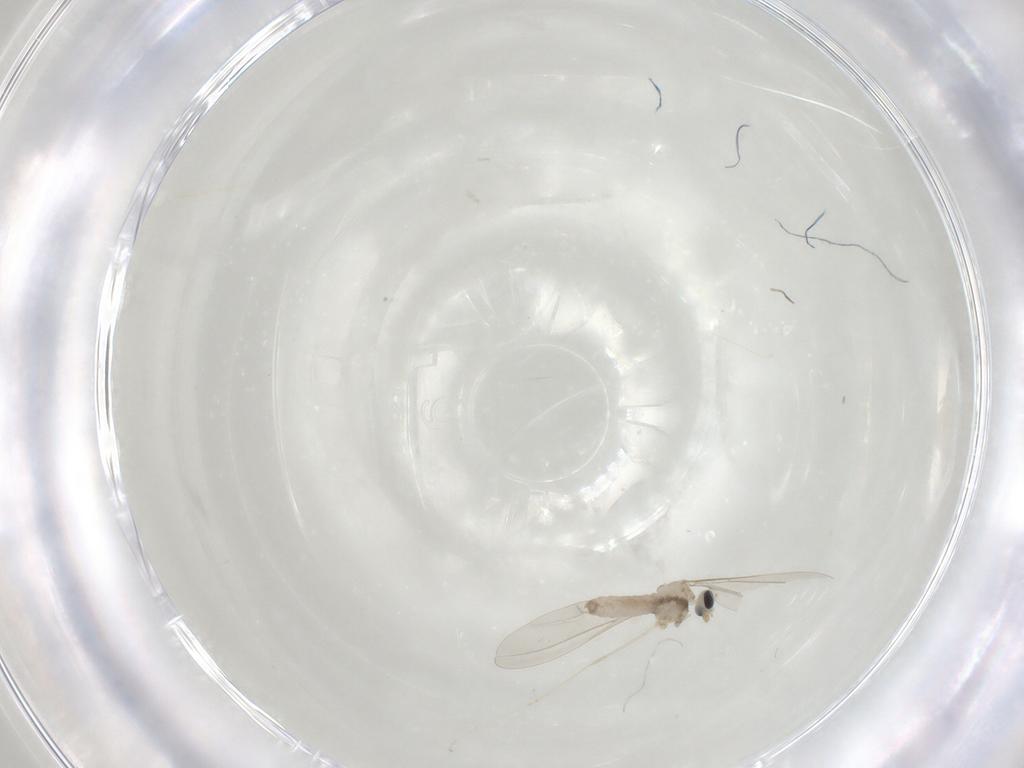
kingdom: Animalia
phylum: Arthropoda
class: Insecta
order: Diptera
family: Cecidomyiidae
